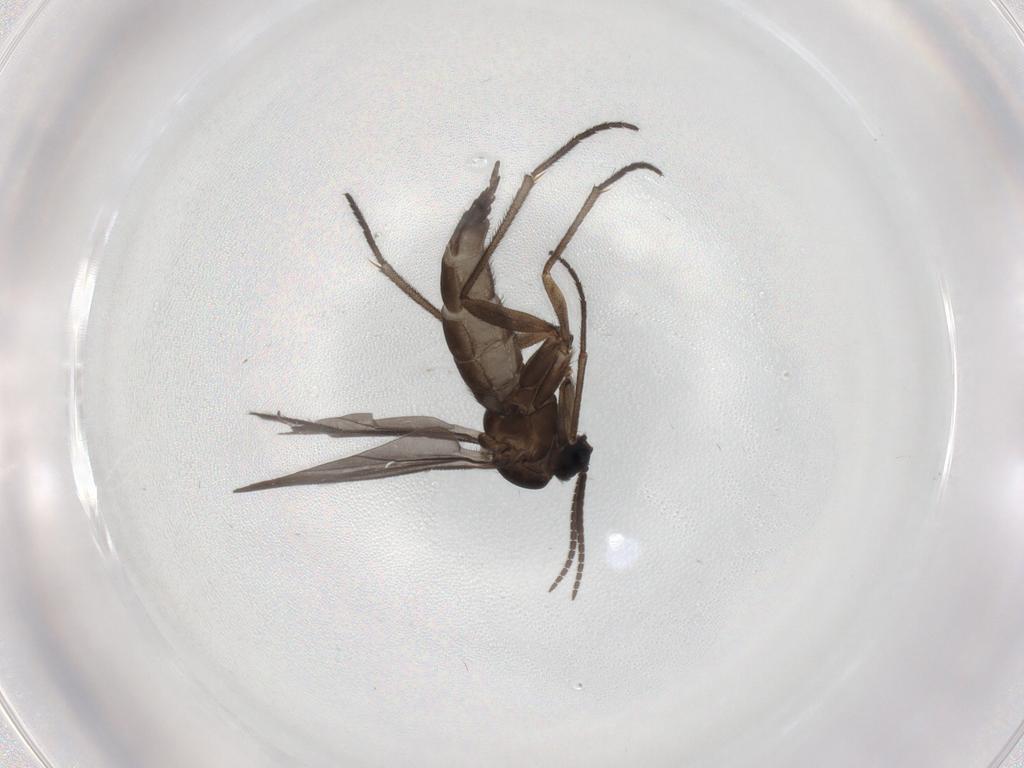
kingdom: Animalia
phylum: Arthropoda
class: Insecta
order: Diptera
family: Sciaridae
